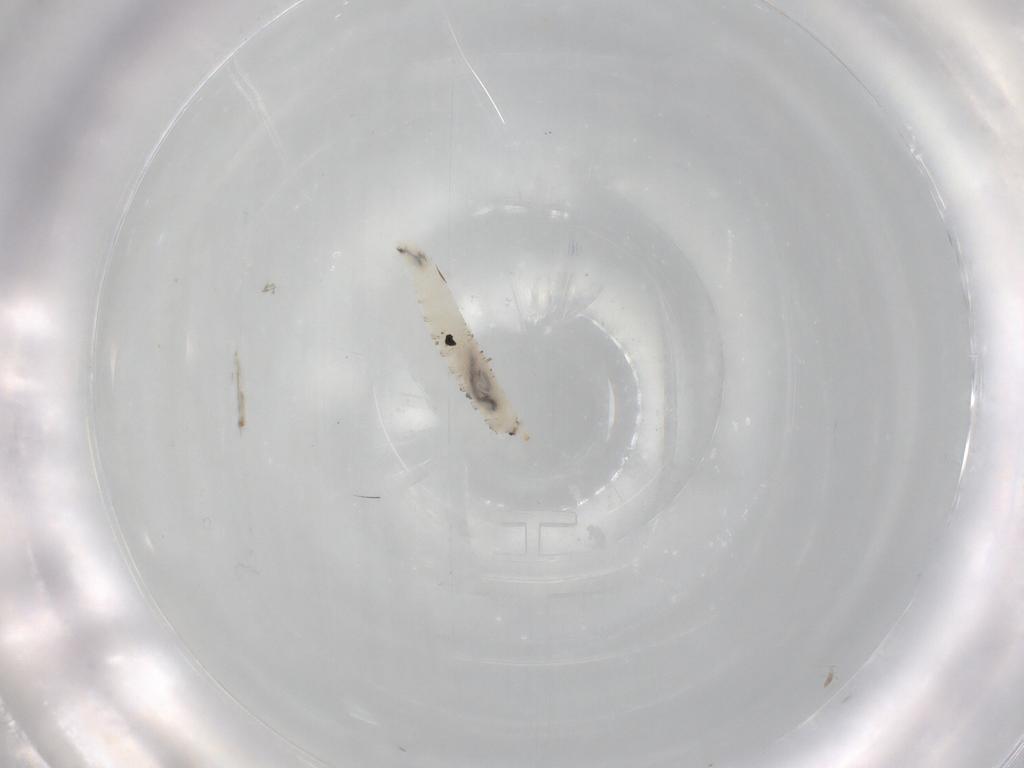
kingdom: Animalia
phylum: Arthropoda
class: Insecta
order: Diptera
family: Drosophilidae
